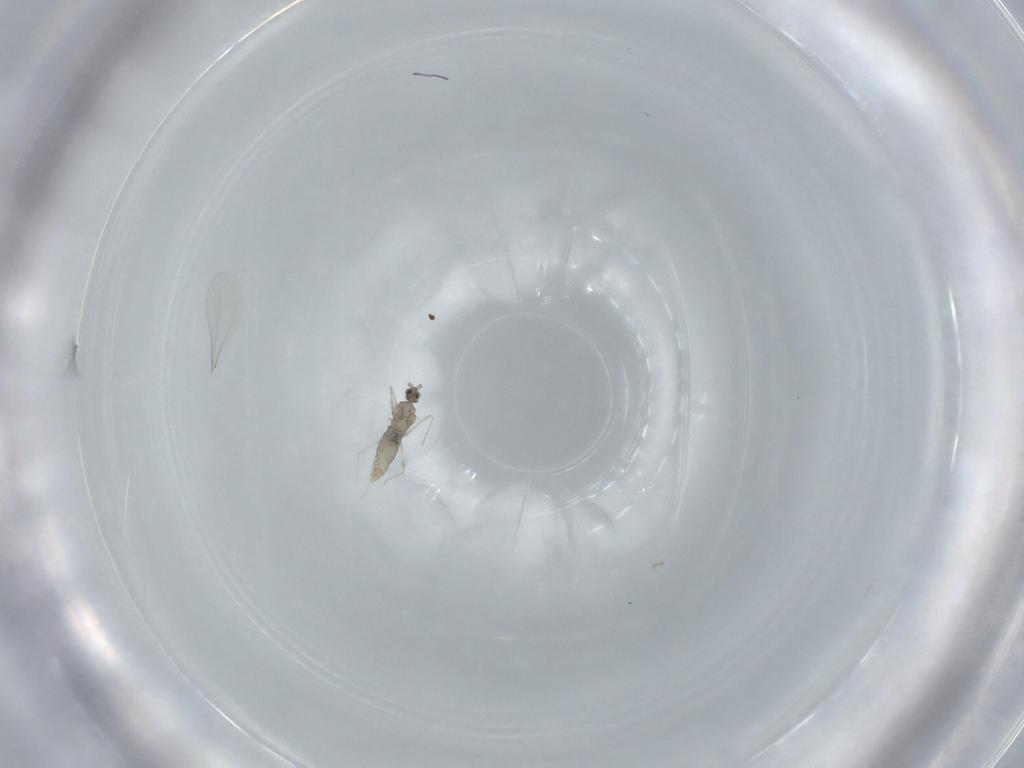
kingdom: Animalia
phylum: Arthropoda
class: Insecta
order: Diptera
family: Cecidomyiidae
